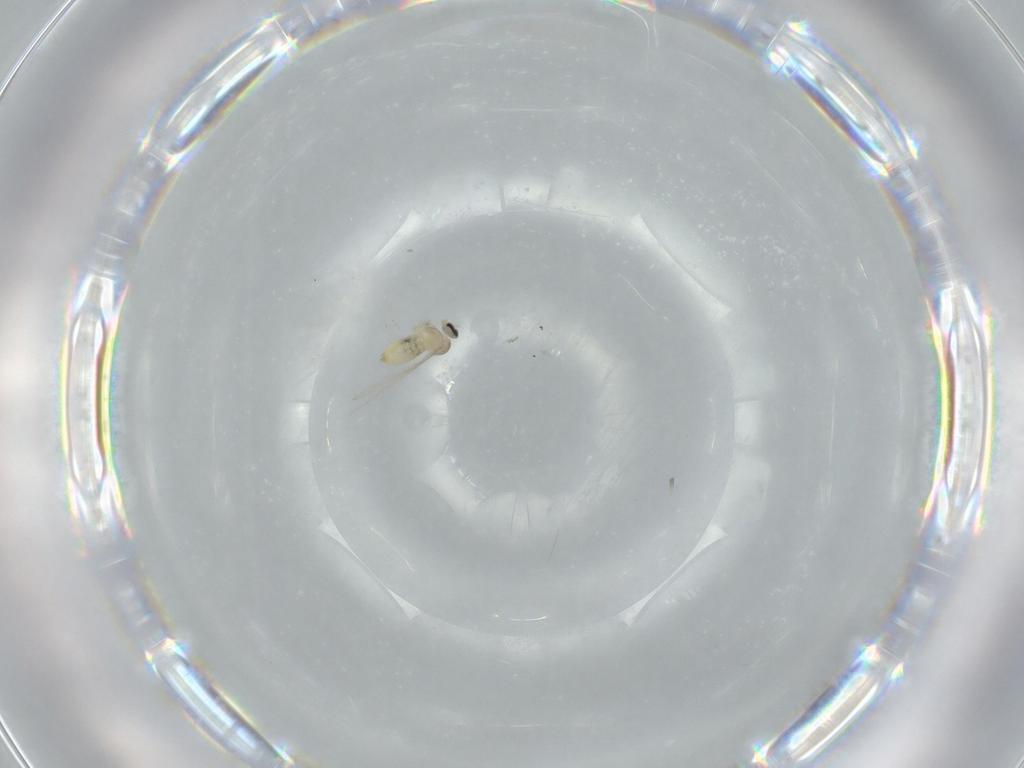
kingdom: Animalia
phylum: Arthropoda
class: Insecta
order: Diptera
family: Cecidomyiidae
